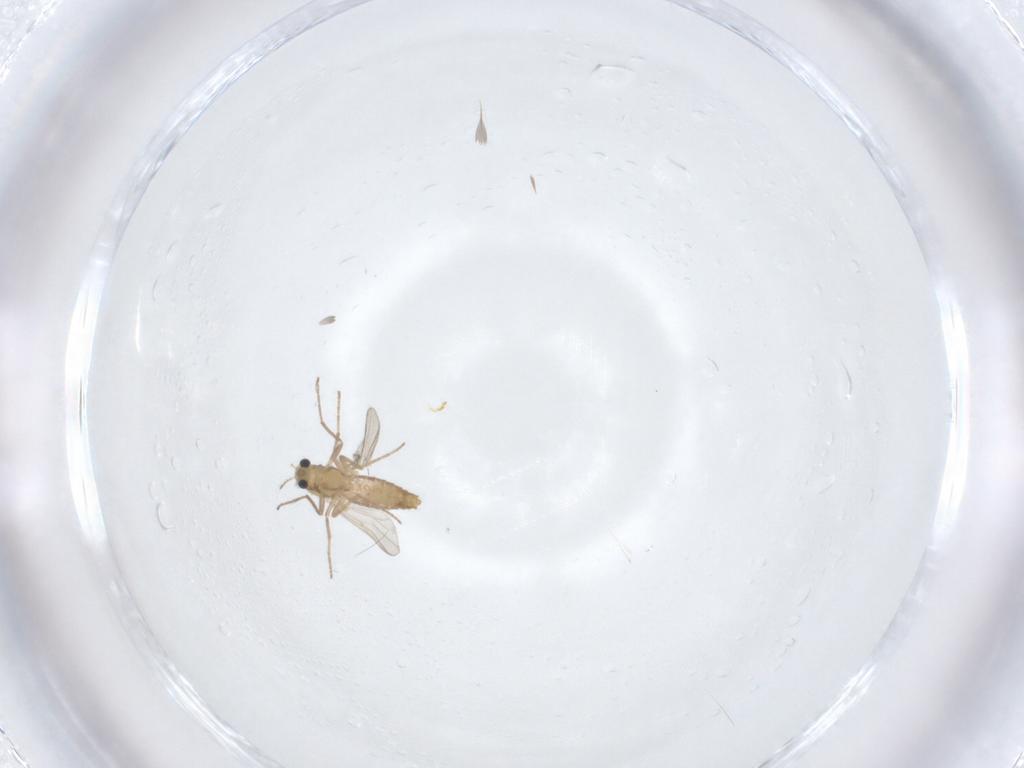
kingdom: Animalia
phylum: Arthropoda
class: Insecta
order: Diptera
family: Chironomidae
